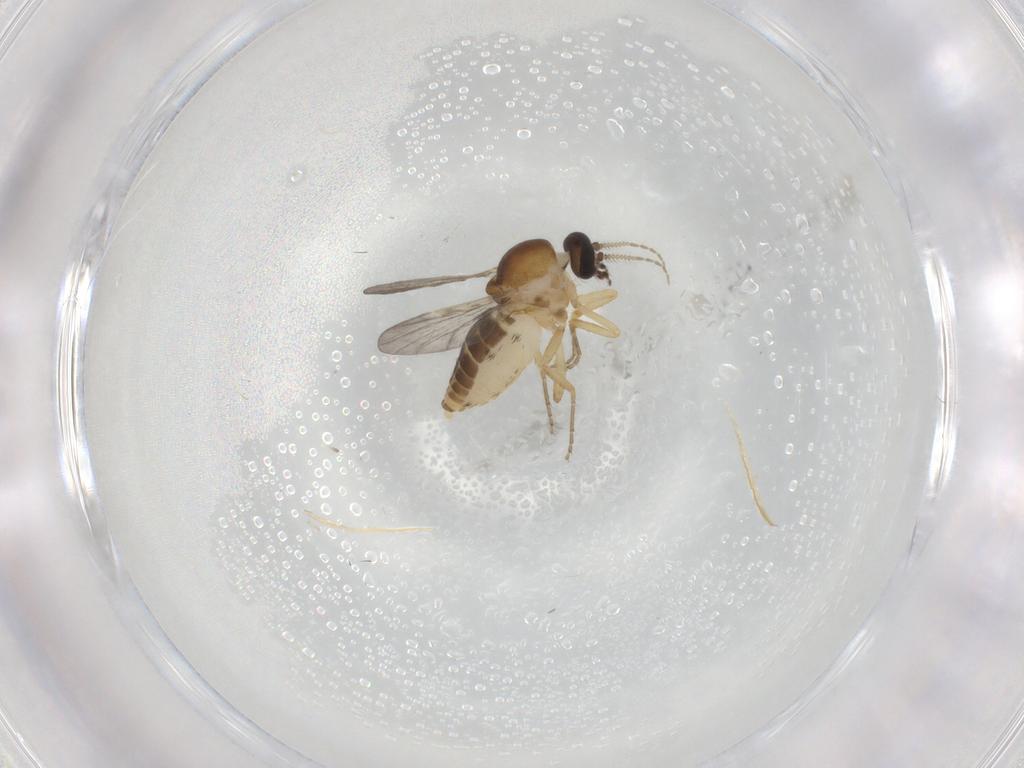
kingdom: Animalia
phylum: Arthropoda
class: Insecta
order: Diptera
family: Ceratopogonidae
